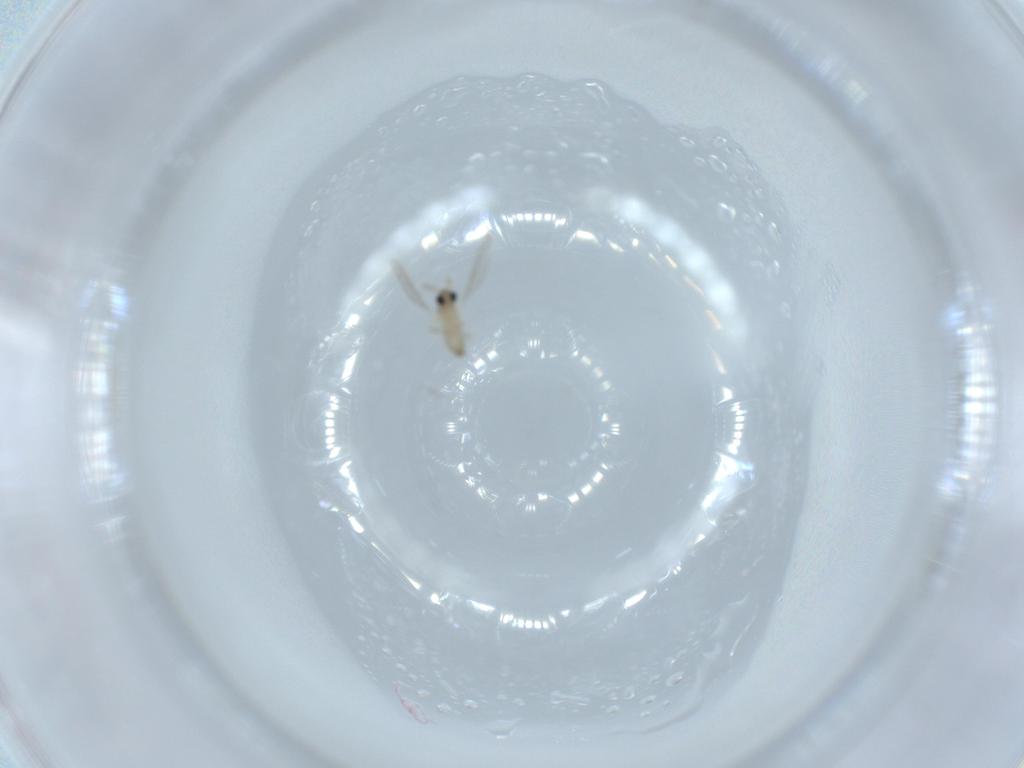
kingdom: Animalia
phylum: Arthropoda
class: Insecta
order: Diptera
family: Cecidomyiidae
